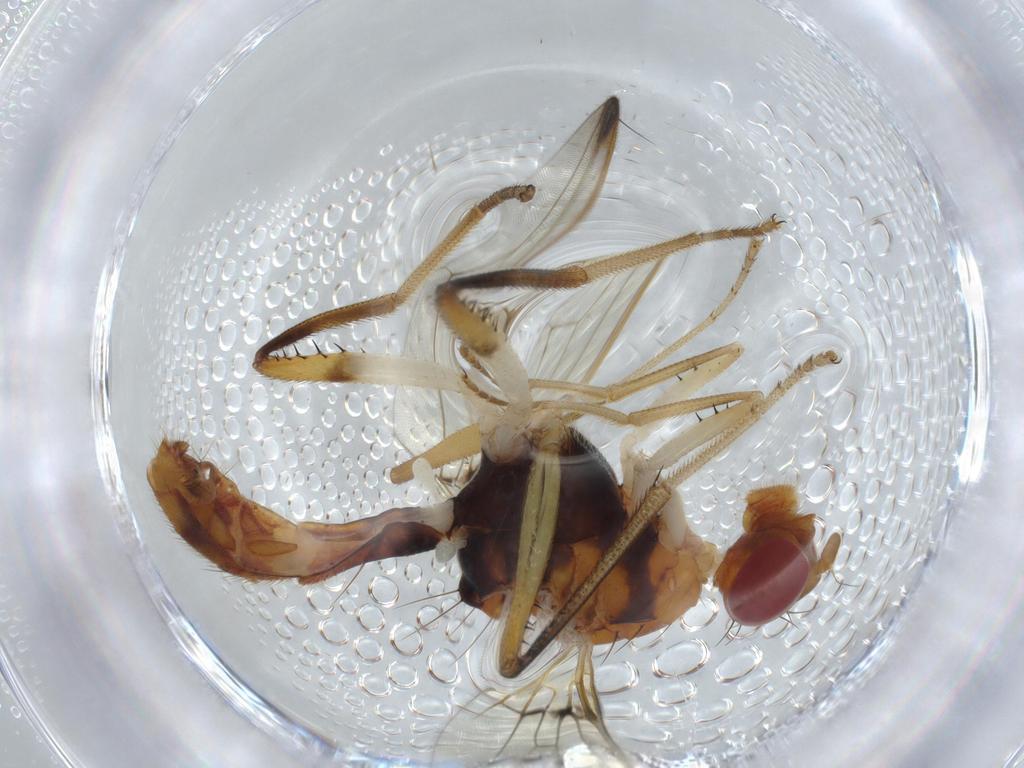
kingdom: Animalia
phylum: Arthropoda
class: Insecta
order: Diptera
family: Richardiidae
